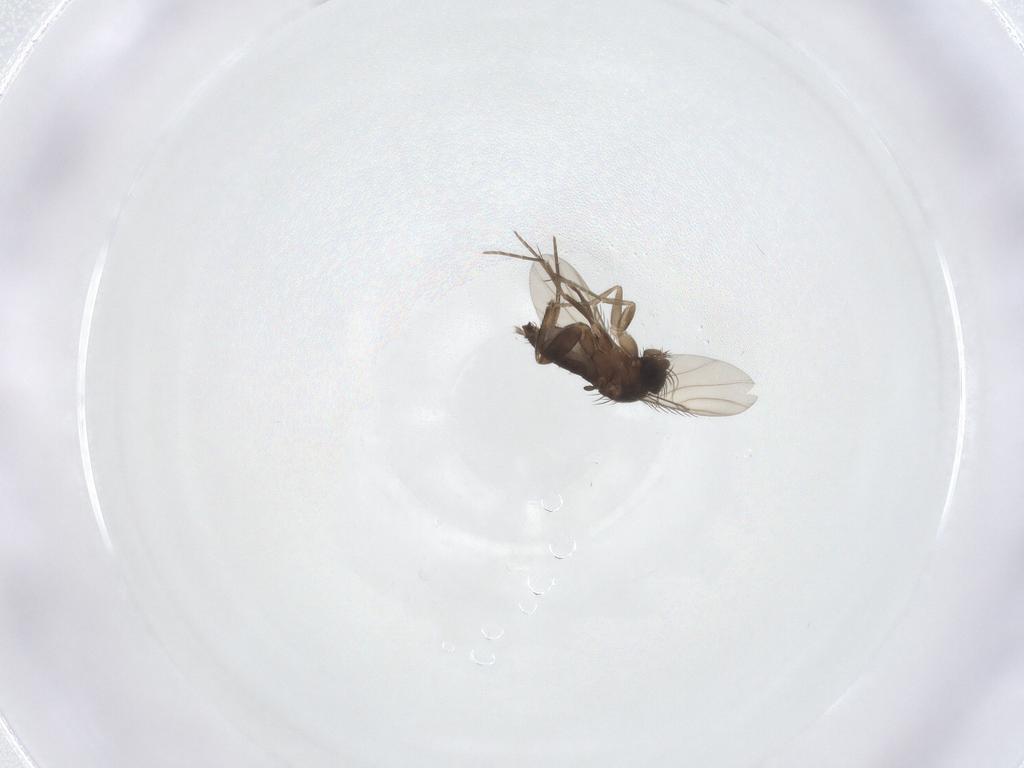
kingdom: Animalia
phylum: Arthropoda
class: Insecta
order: Diptera
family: Phoridae
